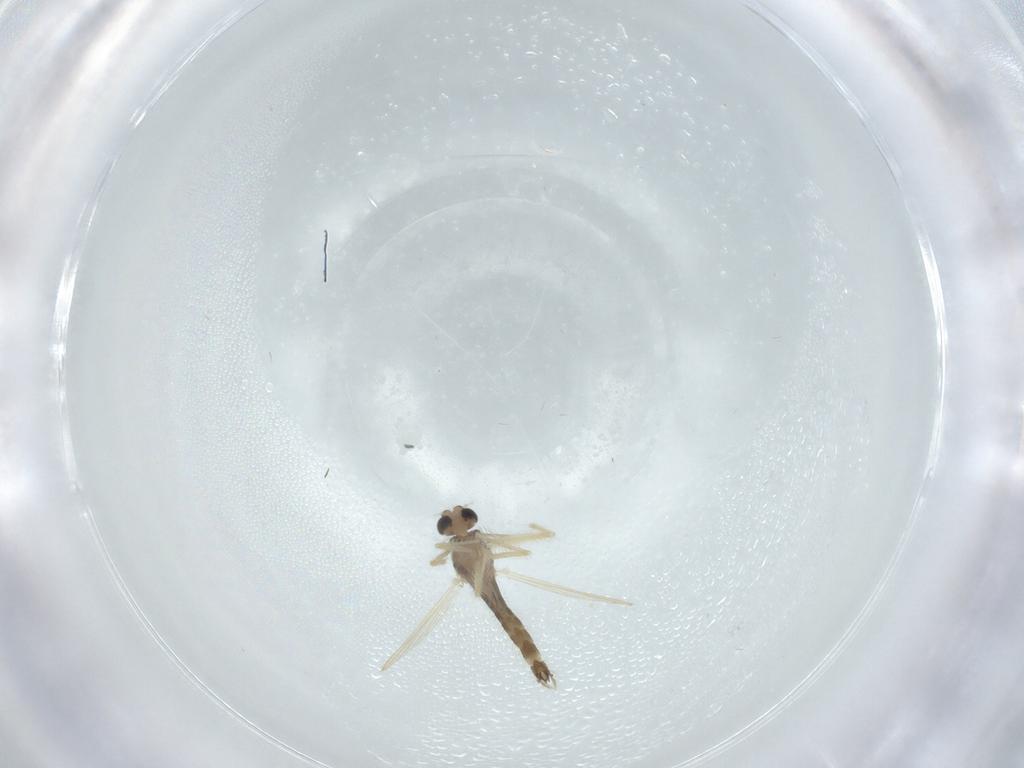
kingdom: Animalia
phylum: Arthropoda
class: Insecta
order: Diptera
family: Chironomidae
